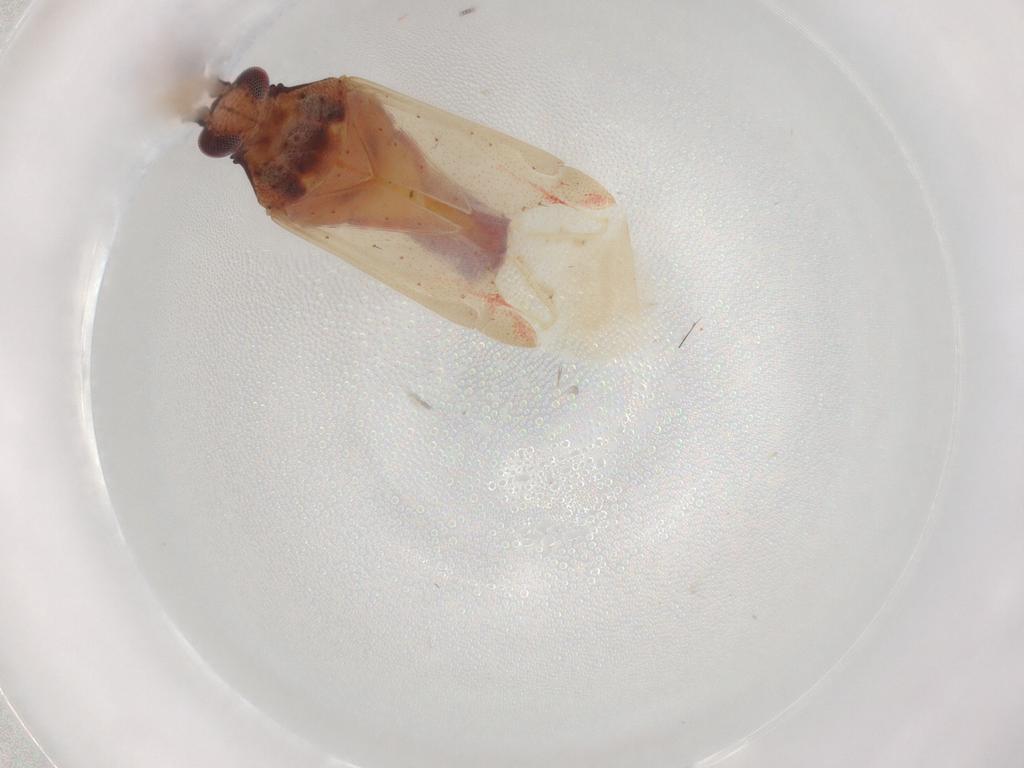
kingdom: Animalia
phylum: Arthropoda
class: Insecta
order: Hemiptera
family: Miridae
